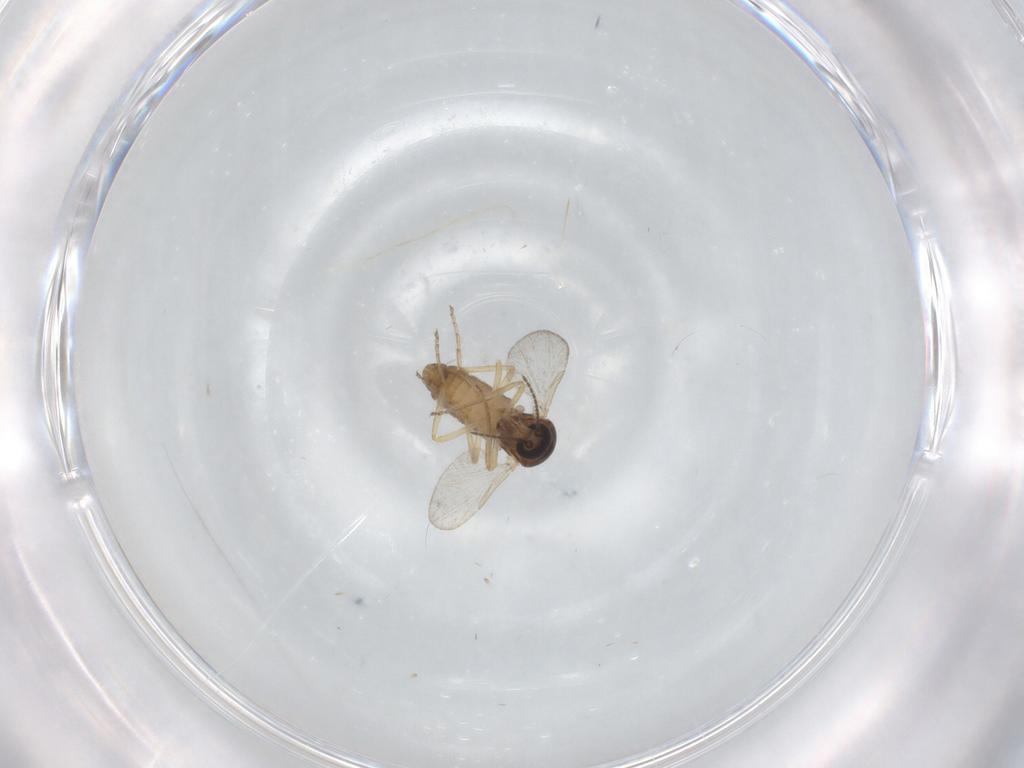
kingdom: Animalia
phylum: Arthropoda
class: Insecta
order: Diptera
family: Ceratopogonidae
